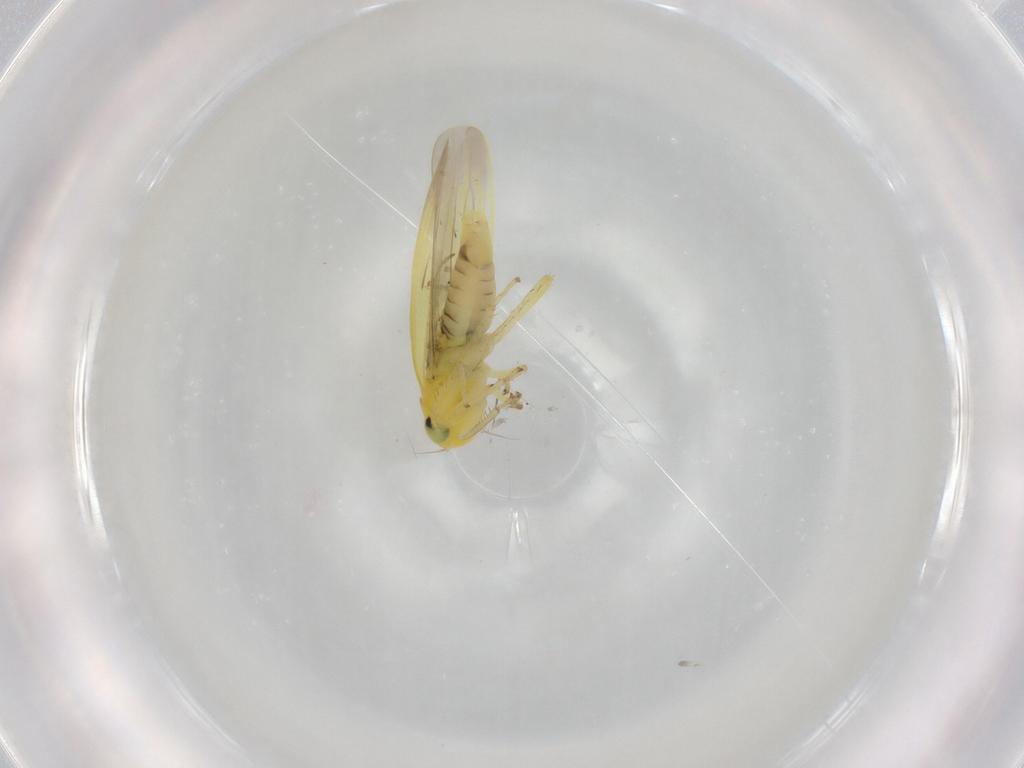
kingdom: Animalia
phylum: Arthropoda
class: Insecta
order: Hemiptera
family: Cicadellidae
